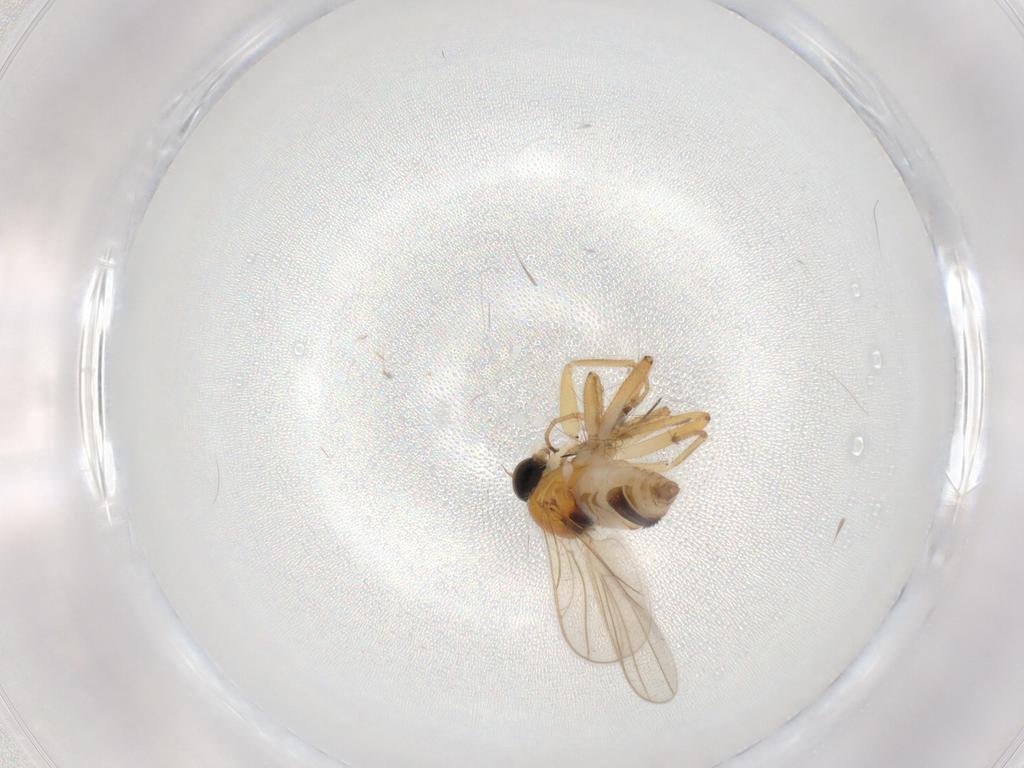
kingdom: Animalia
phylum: Arthropoda
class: Insecta
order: Diptera
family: Hybotidae
